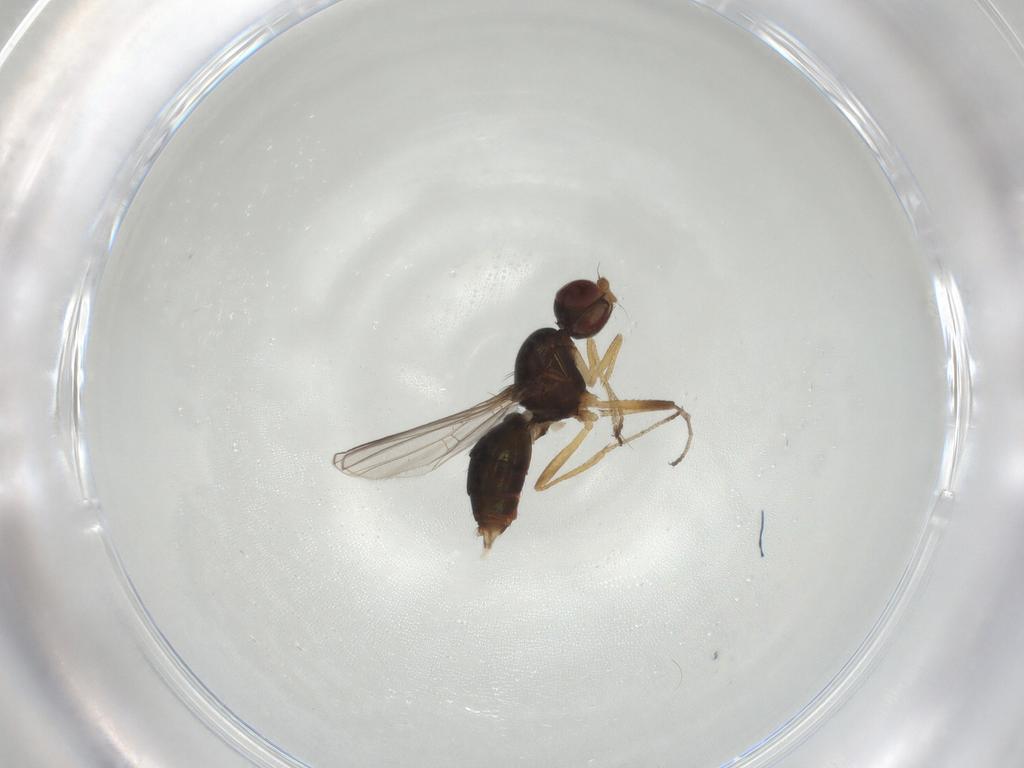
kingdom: Animalia
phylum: Arthropoda
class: Insecta
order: Diptera
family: Sepsidae
